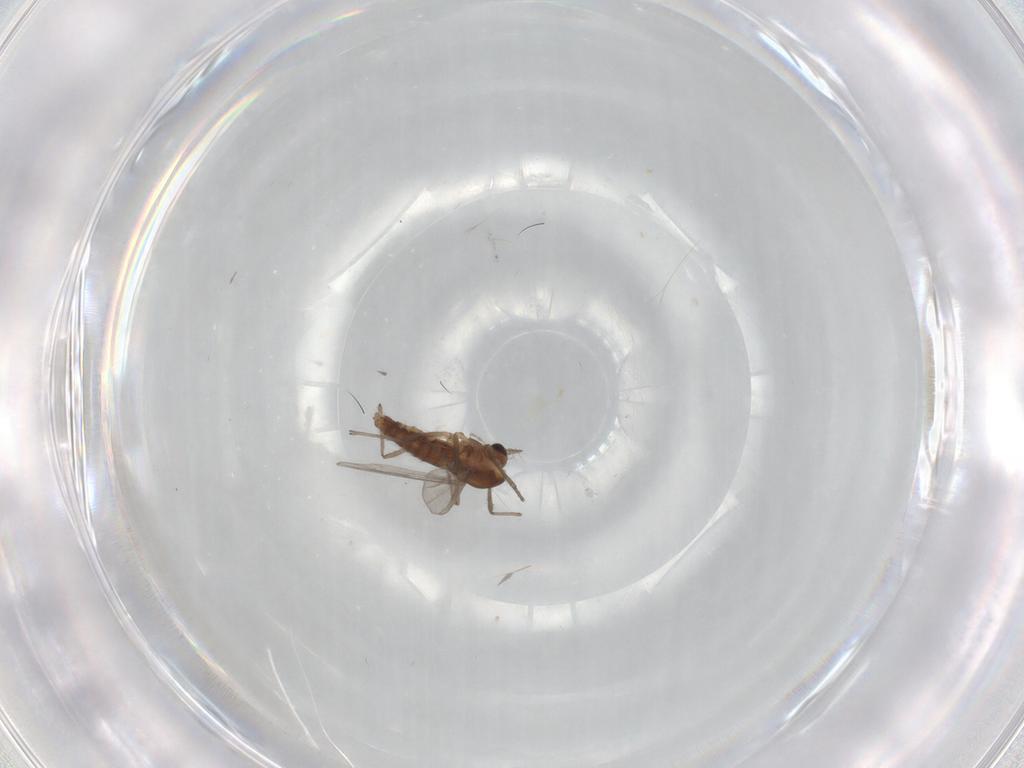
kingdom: Animalia
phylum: Arthropoda
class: Insecta
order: Diptera
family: Chironomidae
